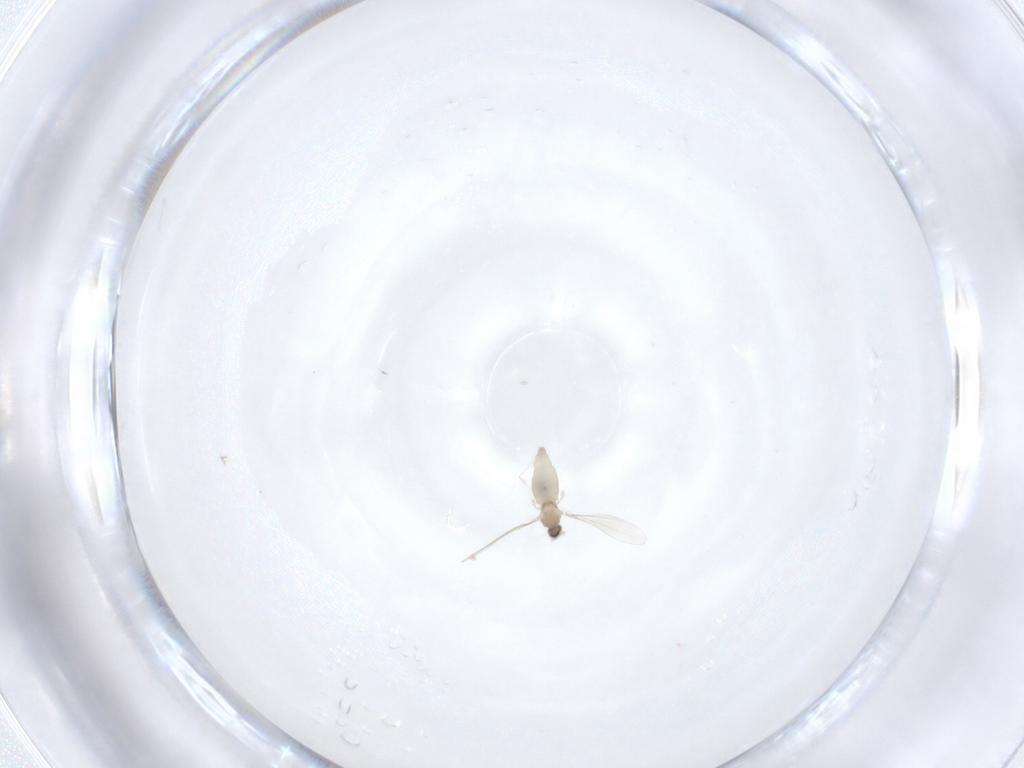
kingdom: Animalia
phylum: Arthropoda
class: Insecta
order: Diptera
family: Cecidomyiidae
